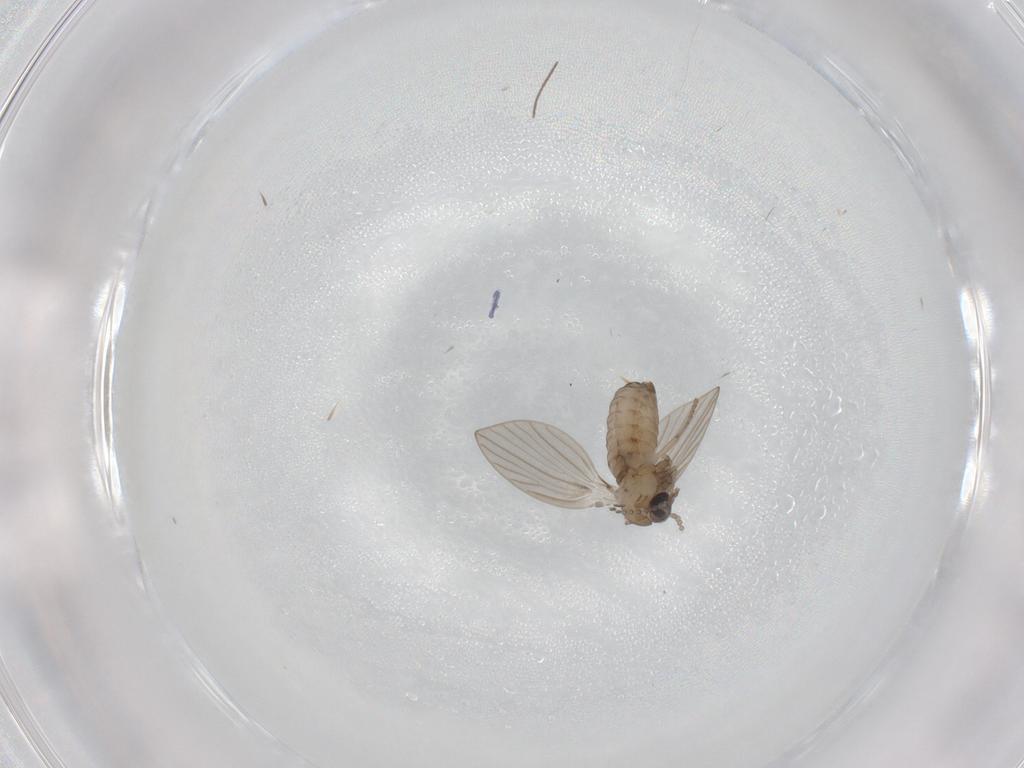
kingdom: Animalia
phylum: Arthropoda
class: Insecta
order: Diptera
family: Psychodidae
